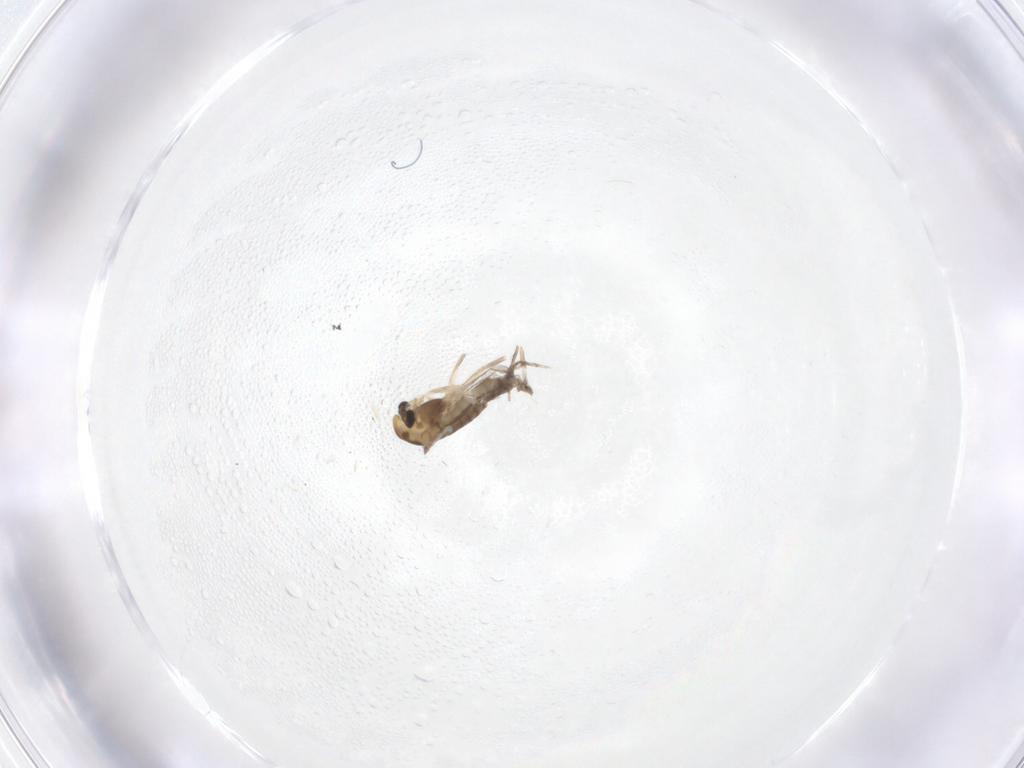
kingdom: Animalia
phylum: Arthropoda
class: Insecta
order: Diptera
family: Chironomidae
